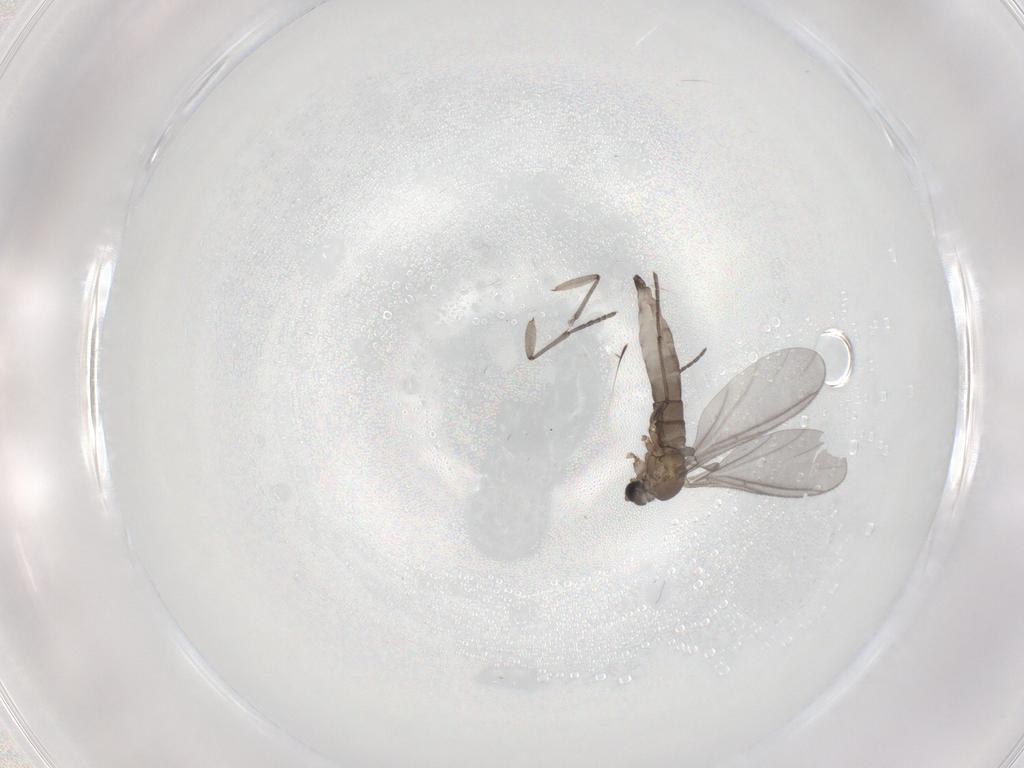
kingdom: Animalia
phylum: Arthropoda
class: Insecta
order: Diptera
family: Sciaridae
